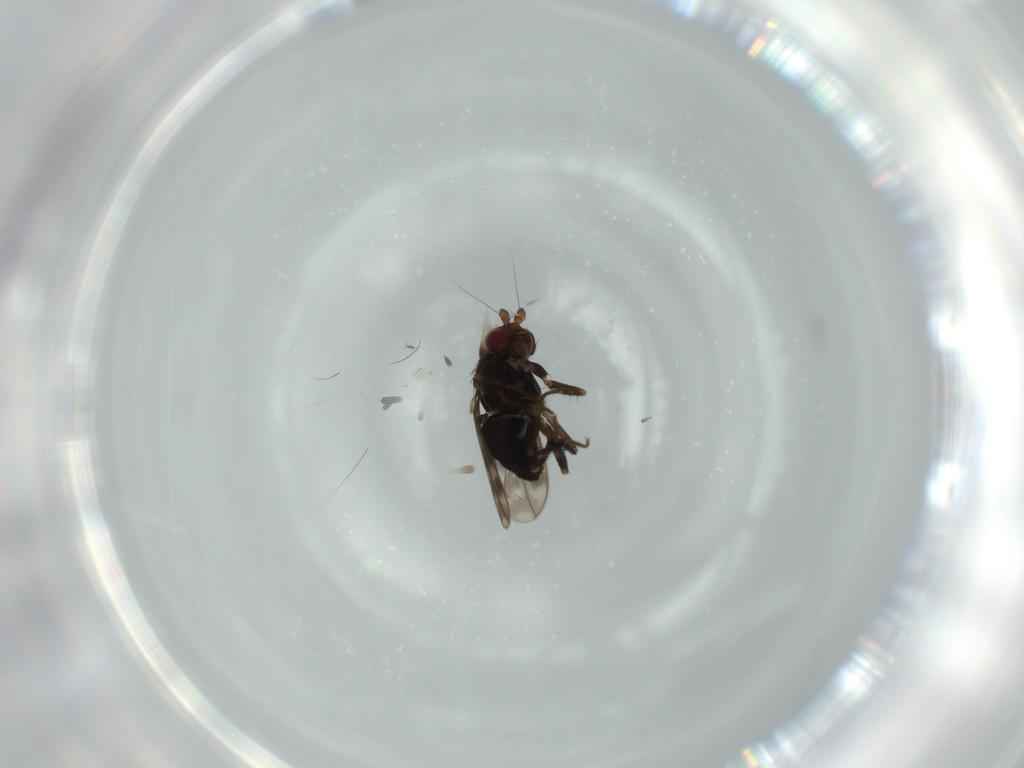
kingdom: Animalia
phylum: Arthropoda
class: Insecta
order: Diptera
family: Sphaeroceridae
